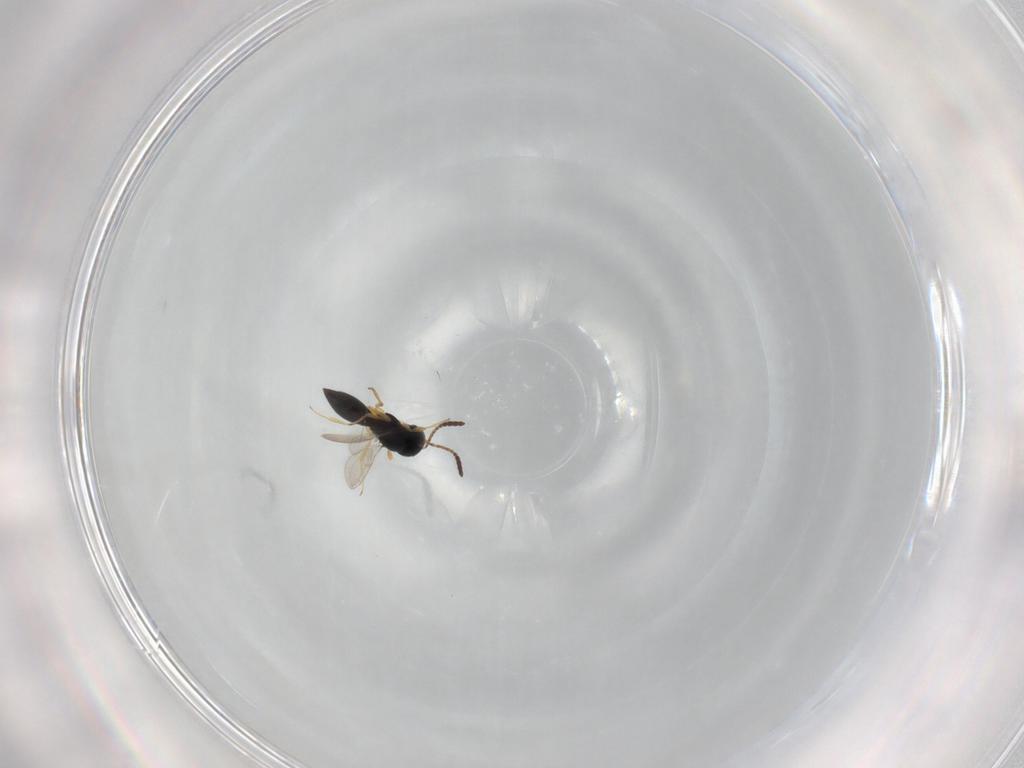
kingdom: Animalia
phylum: Arthropoda
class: Insecta
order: Hymenoptera
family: Scelionidae
